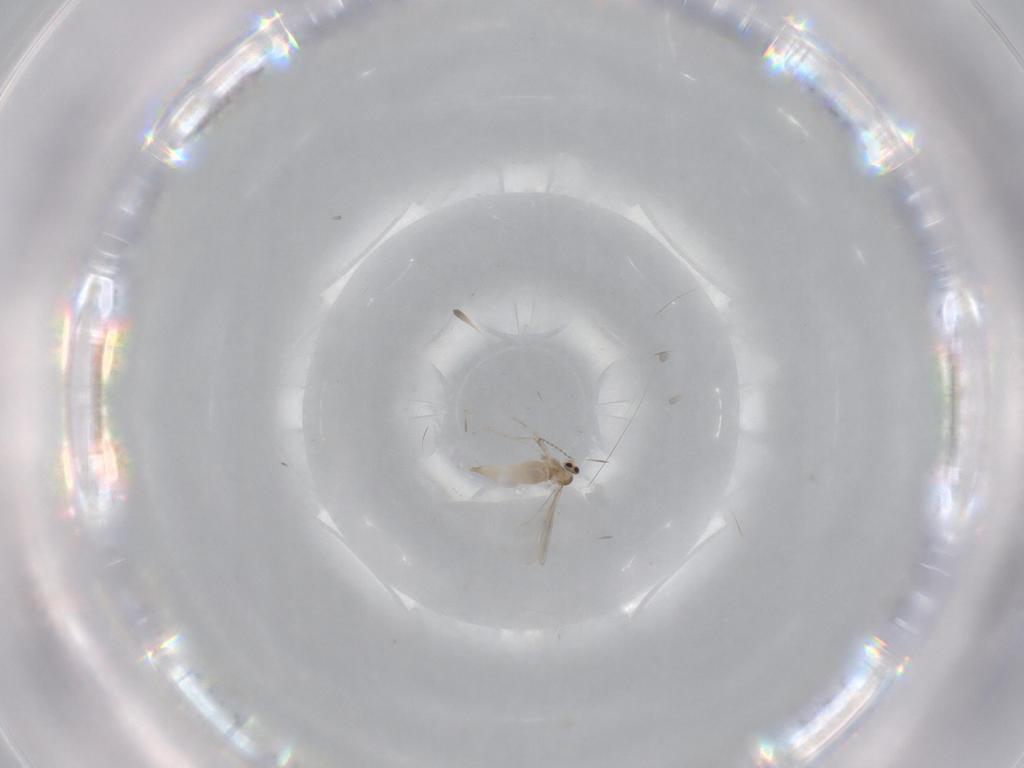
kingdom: Animalia
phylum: Arthropoda
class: Insecta
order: Diptera
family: Cecidomyiidae
